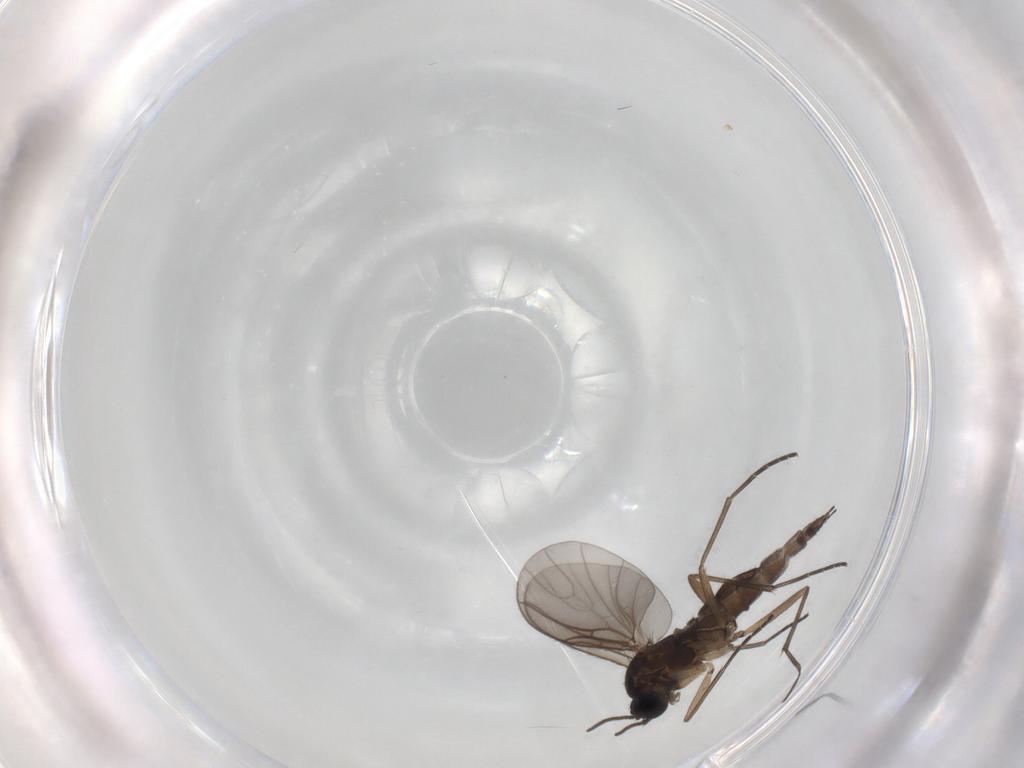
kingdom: Animalia
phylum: Arthropoda
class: Insecta
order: Diptera
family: Sciaridae
